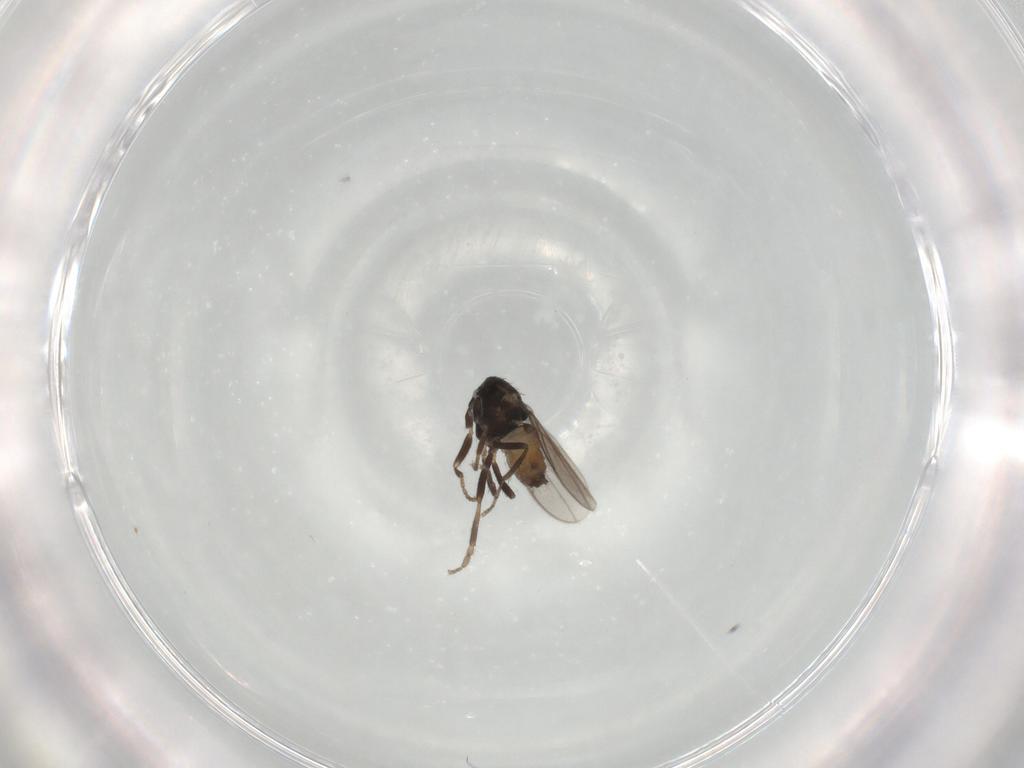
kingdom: Animalia
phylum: Arthropoda
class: Insecta
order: Diptera
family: Sphaeroceridae
